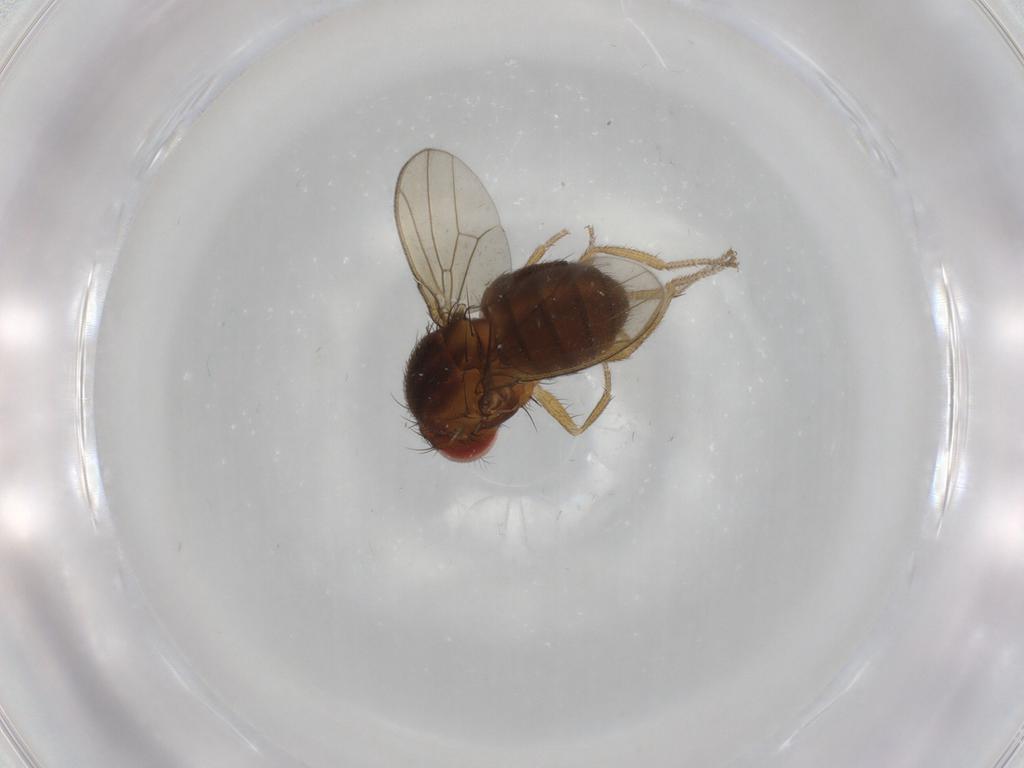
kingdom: Animalia
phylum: Arthropoda
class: Insecta
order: Diptera
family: Drosophilidae
